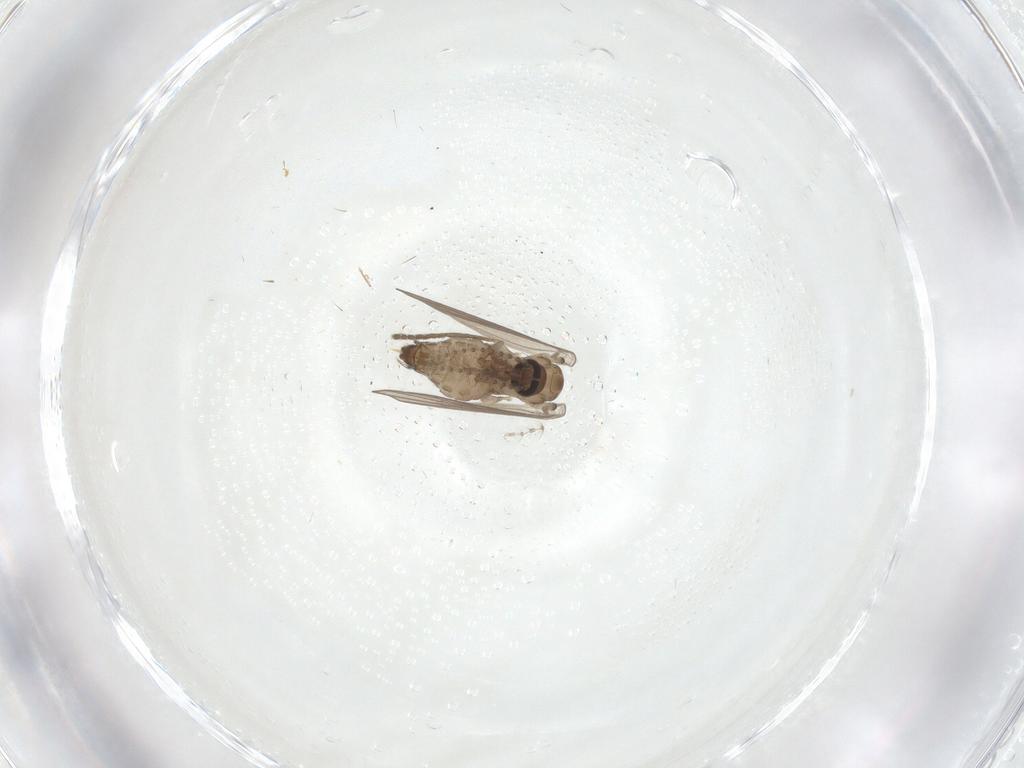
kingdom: Animalia
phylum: Arthropoda
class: Insecta
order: Diptera
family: Psychodidae
